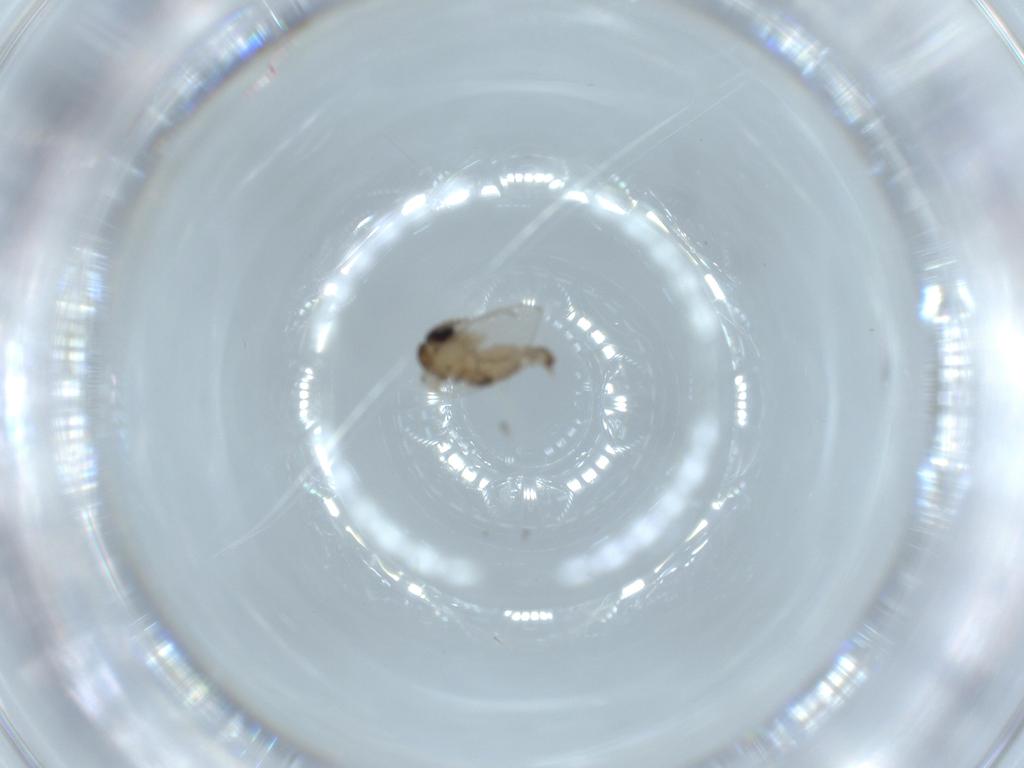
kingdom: Animalia
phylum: Arthropoda
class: Insecta
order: Diptera
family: Psychodidae
